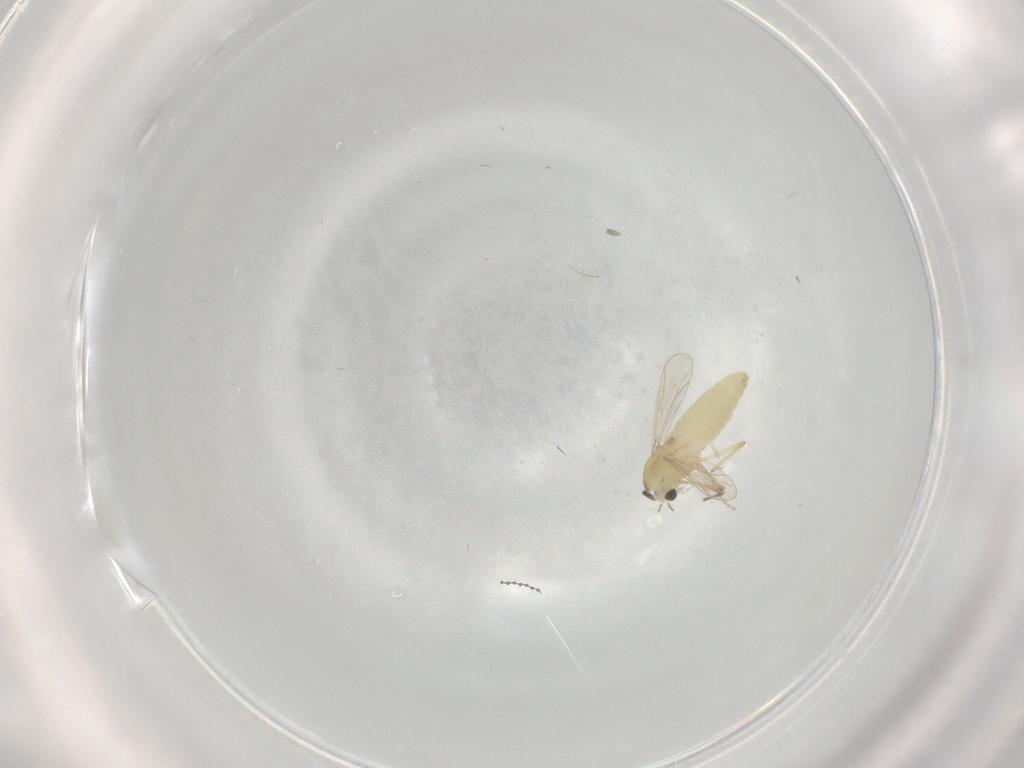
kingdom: Animalia
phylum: Arthropoda
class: Insecta
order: Diptera
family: Chironomidae
